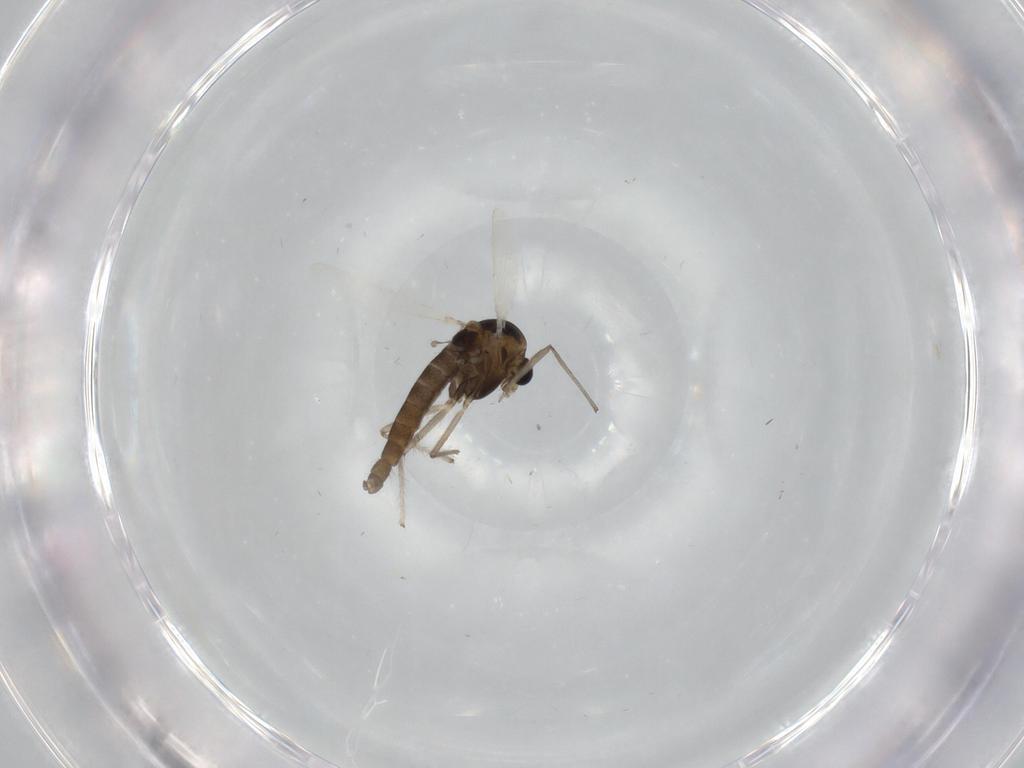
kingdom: Animalia
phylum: Arthropoda
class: Insecta
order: Diptera
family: Chironomidae
